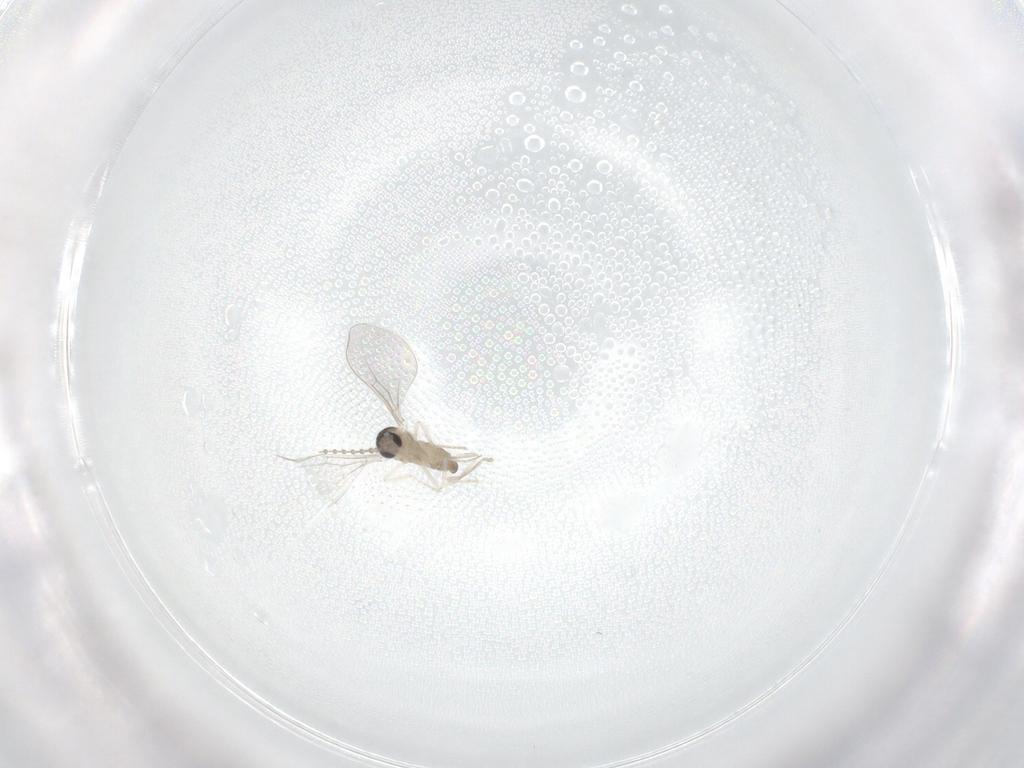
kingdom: Animalia
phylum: Arthropoda
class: Insecta
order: Diptera
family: Cecidomyiidae
